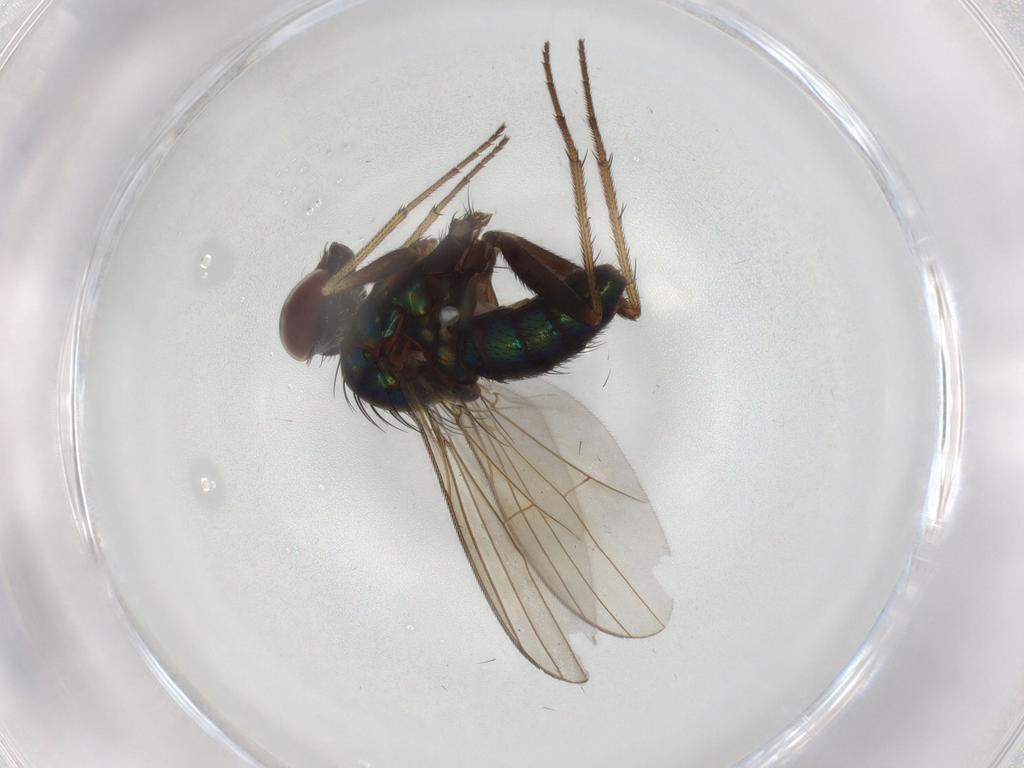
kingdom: Animalia
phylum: Arthropoda
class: Insecta
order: Diptera
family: Dolichopodidae
